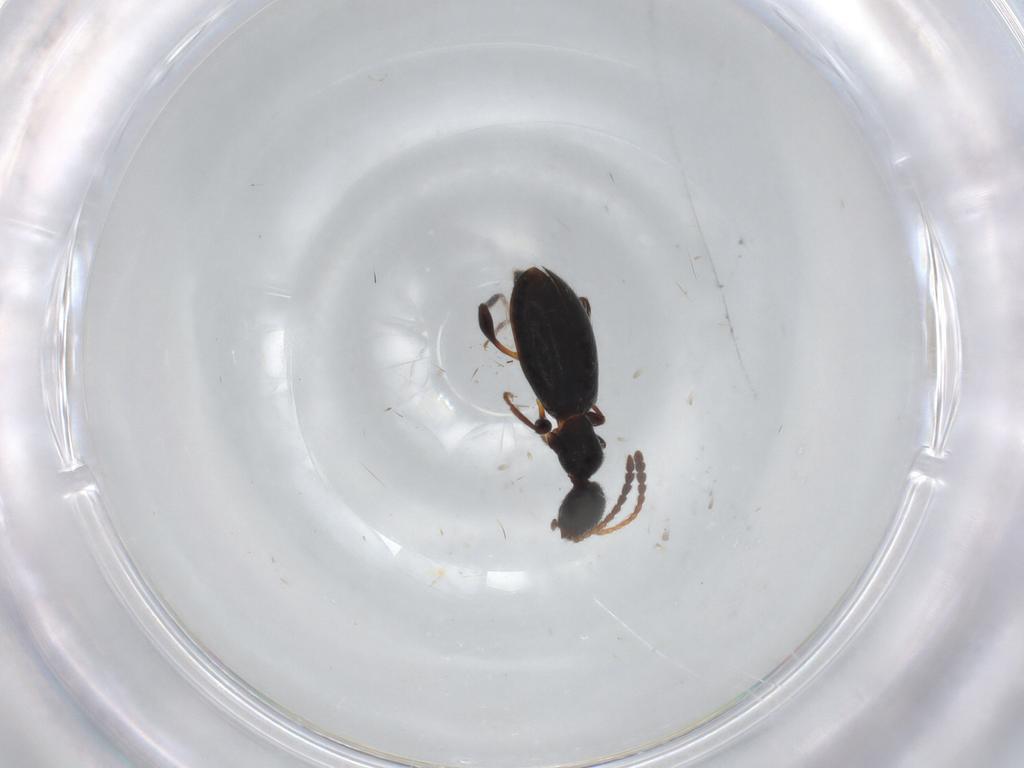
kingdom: Animalia
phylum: Arthropoda
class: Insecta
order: Coleoptera
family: Anthicidae
